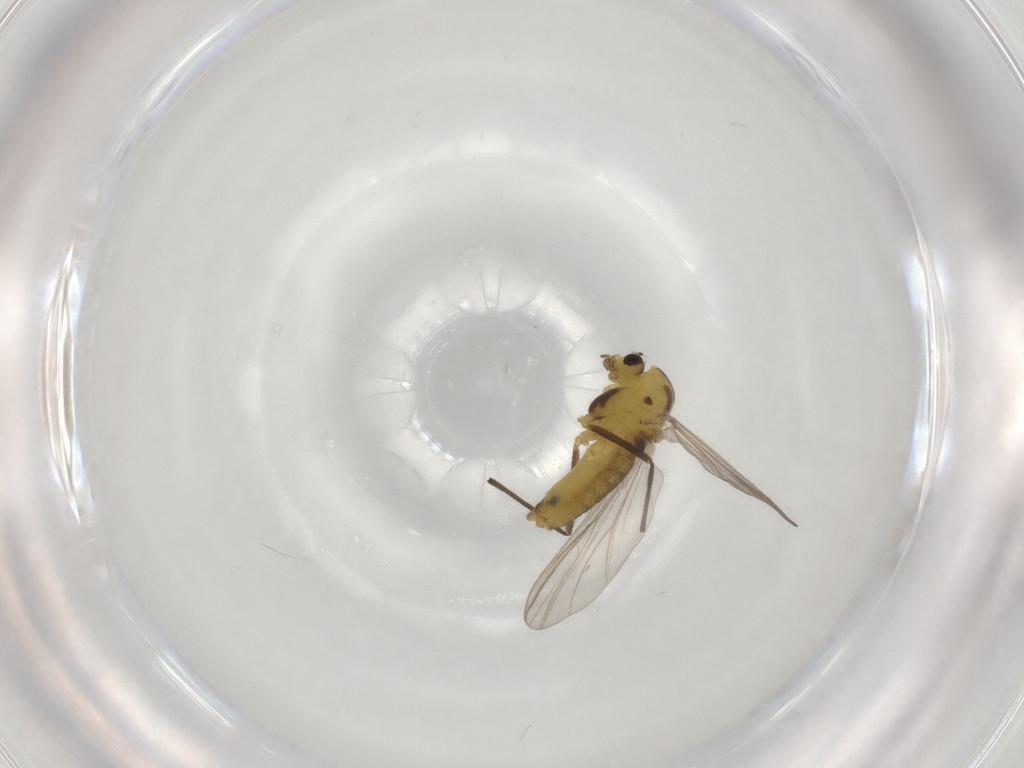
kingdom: Animalia
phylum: Arthropoda
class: Insecta
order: Diptera
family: Chironomidae
